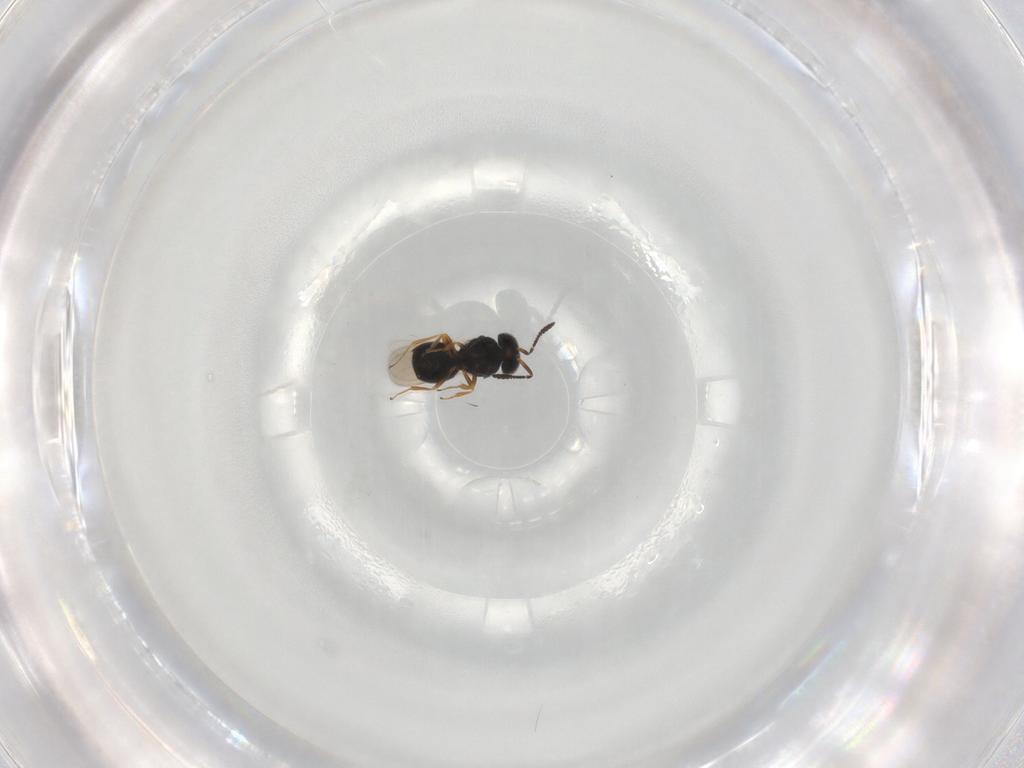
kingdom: Animalia
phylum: Arthropoda
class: Insecta
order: Hymenoptera
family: Scelionidae
